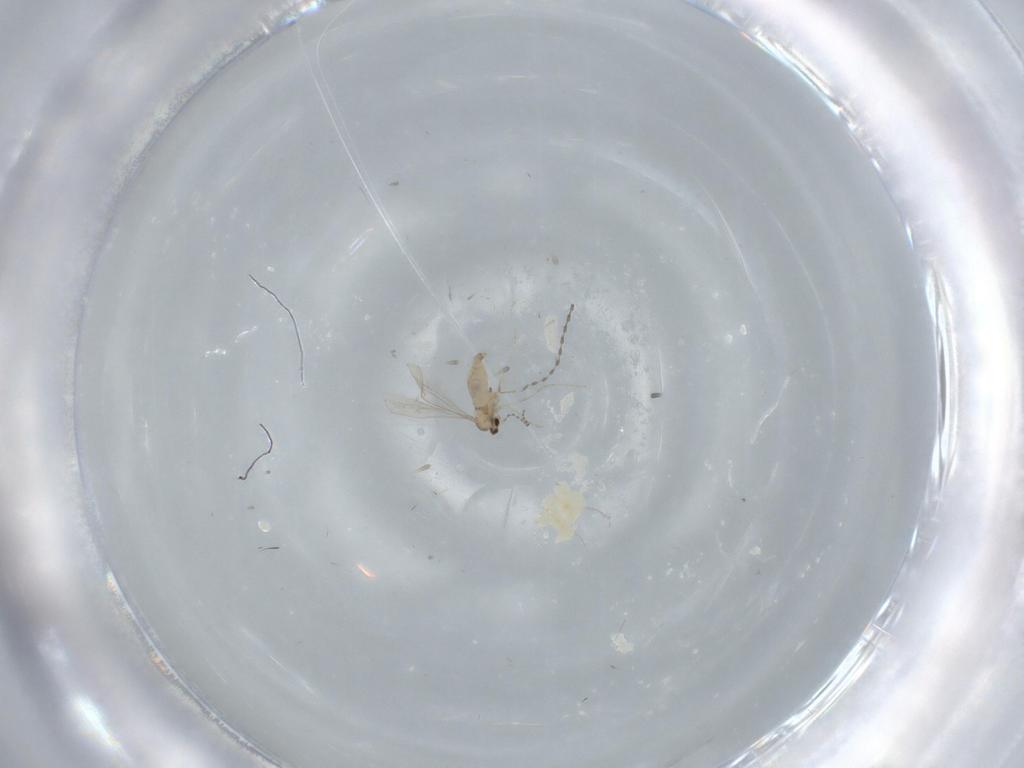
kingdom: Animalia
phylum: Arthropoda
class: Insecta
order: Diptera
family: Cecidomyiidae
